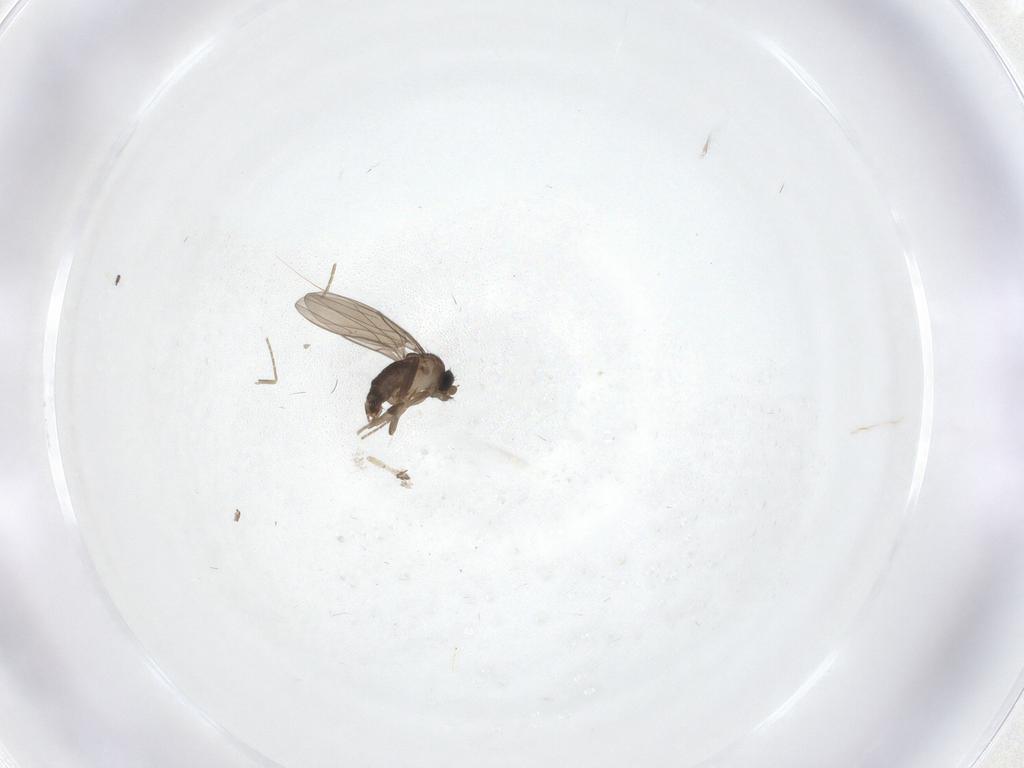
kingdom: Animalia
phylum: Arthropoda
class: Insecta
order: Diptera
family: Phoridae
